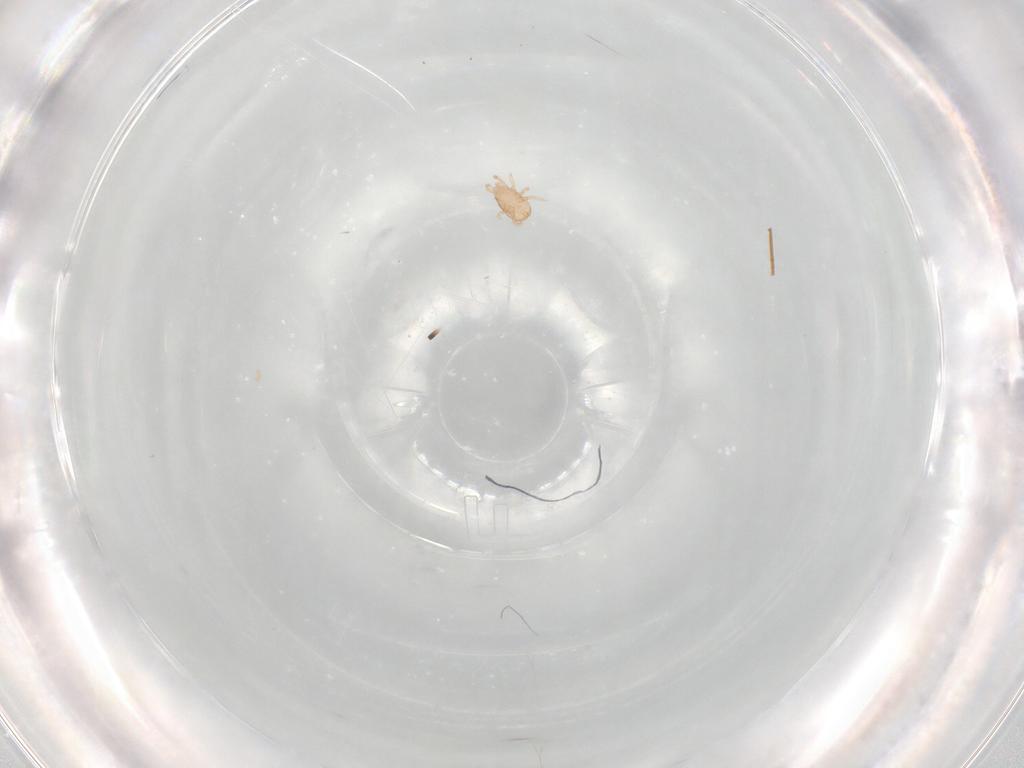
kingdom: Animalia
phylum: Arthropoda
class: Arachnida
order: Mesostigmata
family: Ascidae
